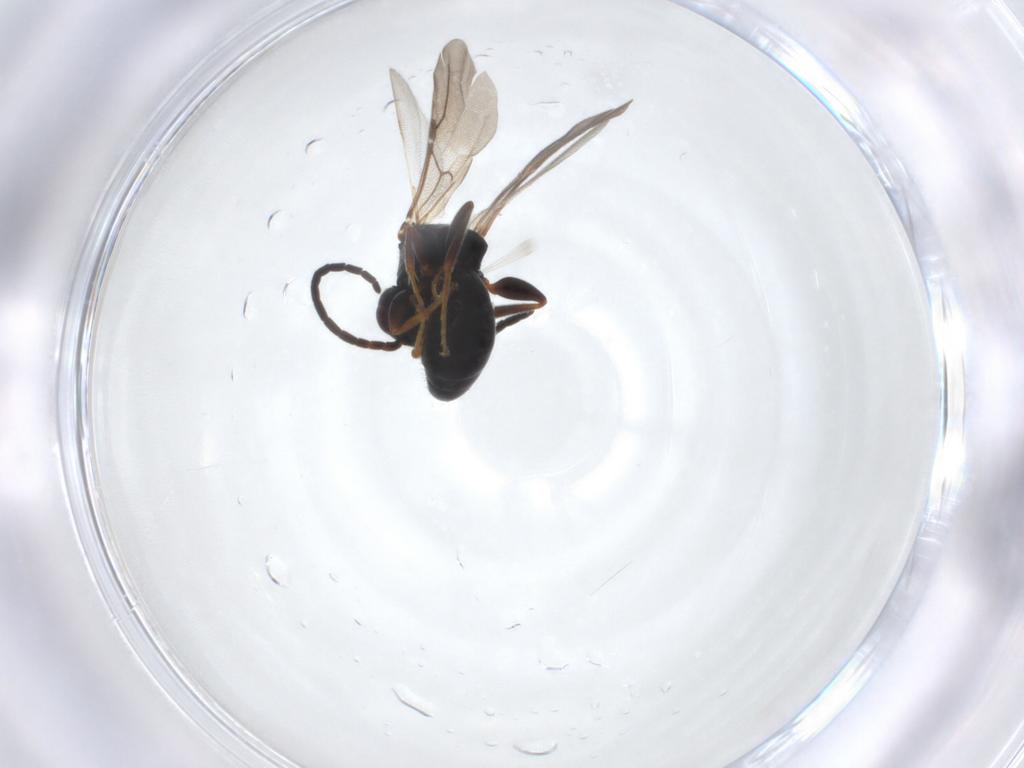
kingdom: Animalia
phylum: Arthropoda
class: Insecta
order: Hymenoptera
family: Bethylidae
